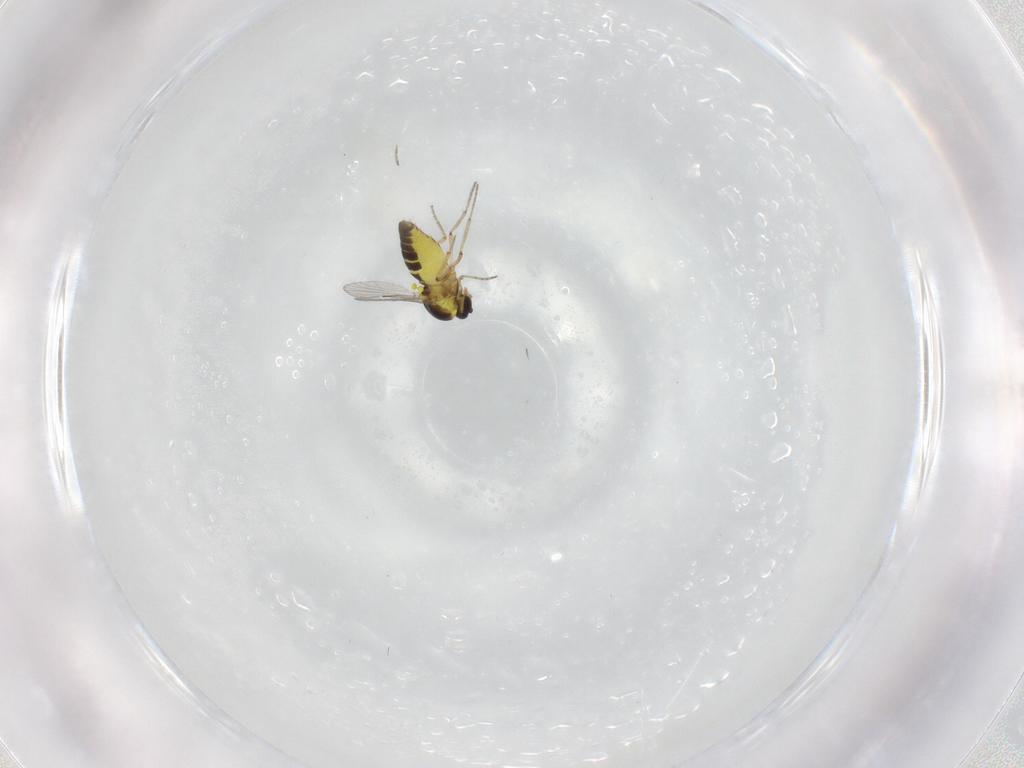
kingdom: Animalia
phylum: Arthropoda
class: Insecta
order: Diptera
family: Ceratopogonidae
